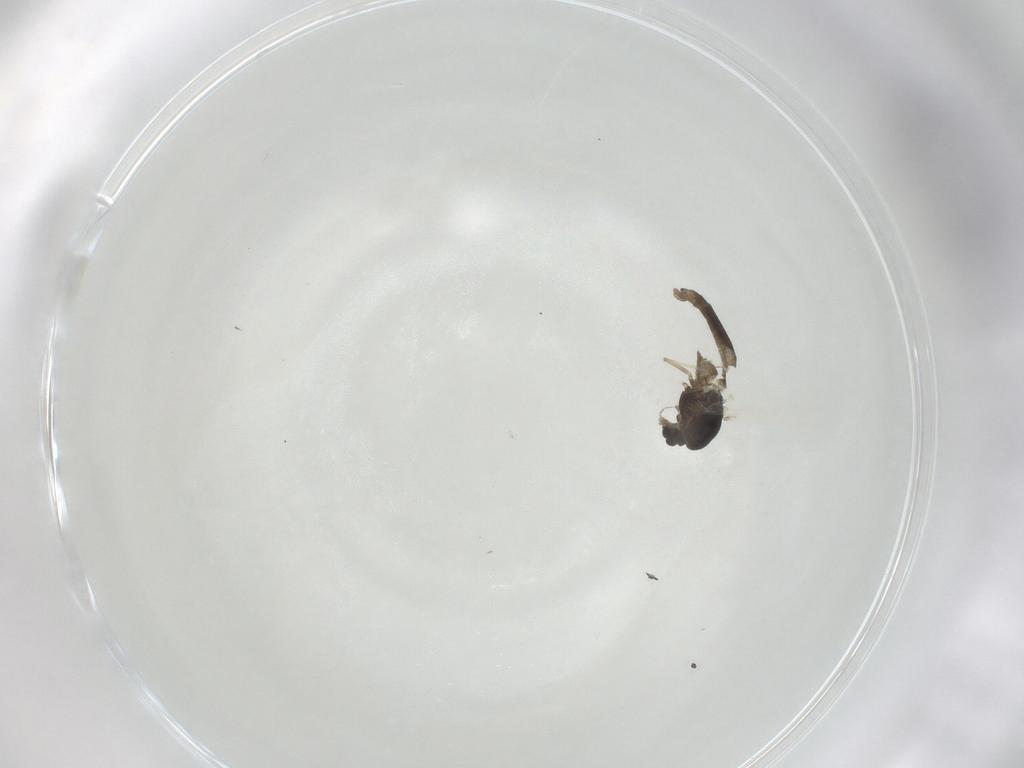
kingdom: Animalia
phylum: Arthropoda
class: Insecta
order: Diptera
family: Chironomidae
